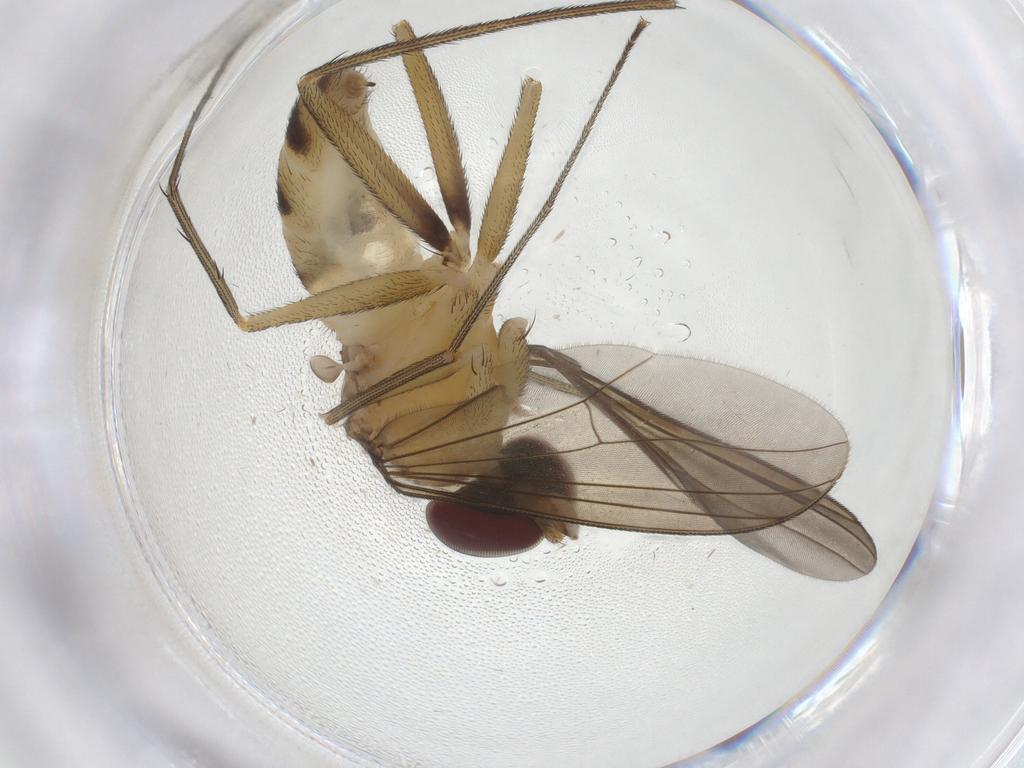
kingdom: Animalia
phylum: Arthropoda
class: Insecta
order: Diptera
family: Dolichopodidae
